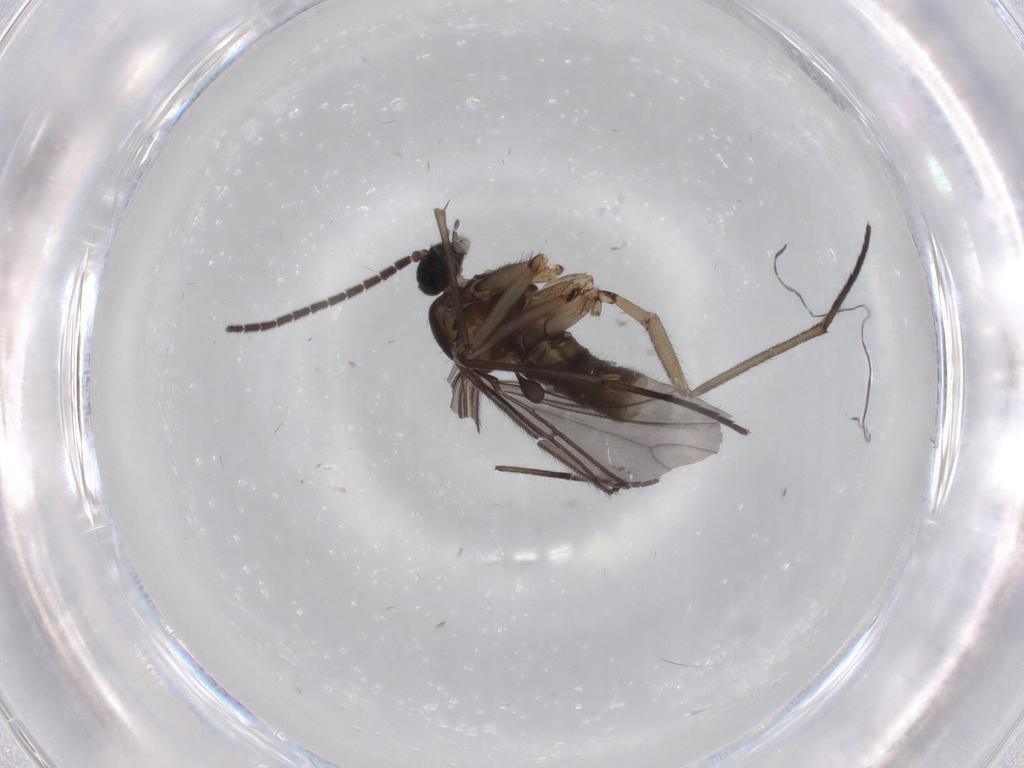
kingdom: Animalia
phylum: Arthropoda
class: Insecta
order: Diptera
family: Sciaridae
